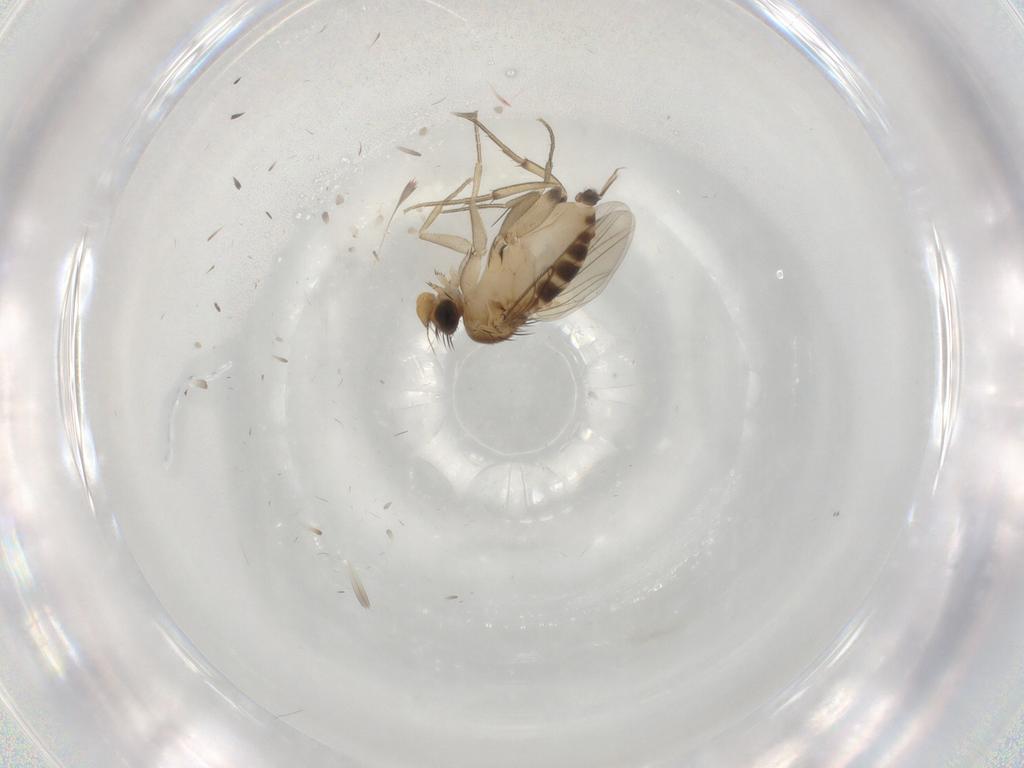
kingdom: Animalia
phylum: Arthropoda
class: Insecta
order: Diptera
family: Phoridae
